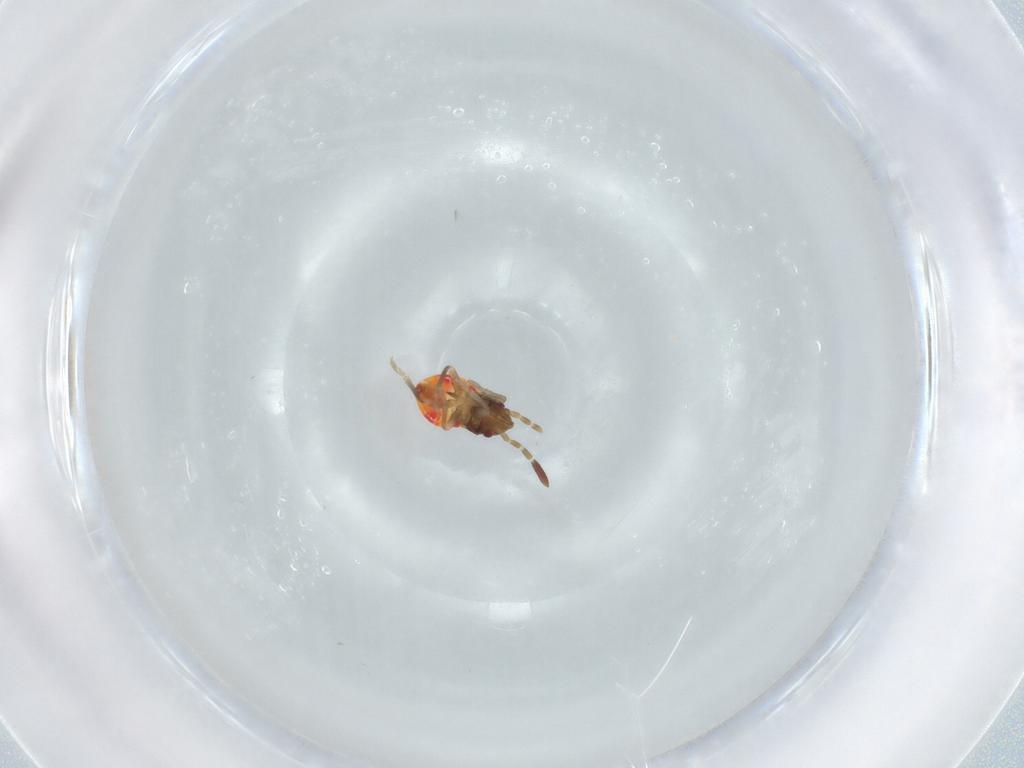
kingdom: Animalia
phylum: Arthropoda
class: Insecta
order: Hemiptera
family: Rhyparochromidae
